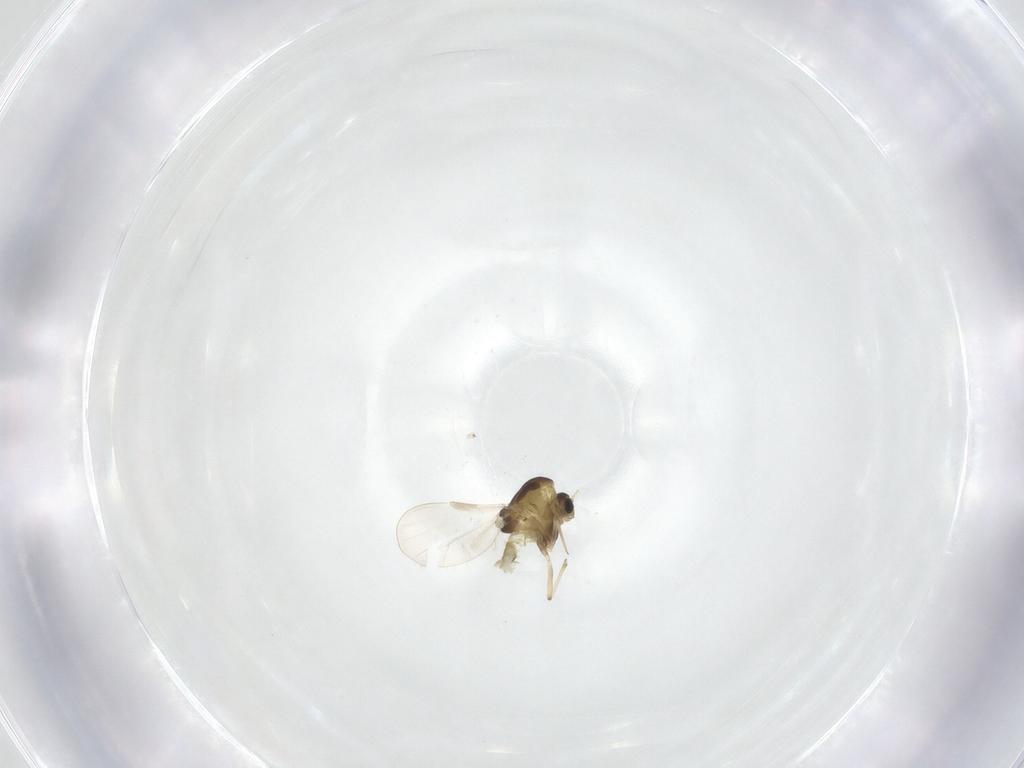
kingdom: Animalia
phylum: Arthropoda
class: Insecta
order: Diptera
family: Chironomidae
